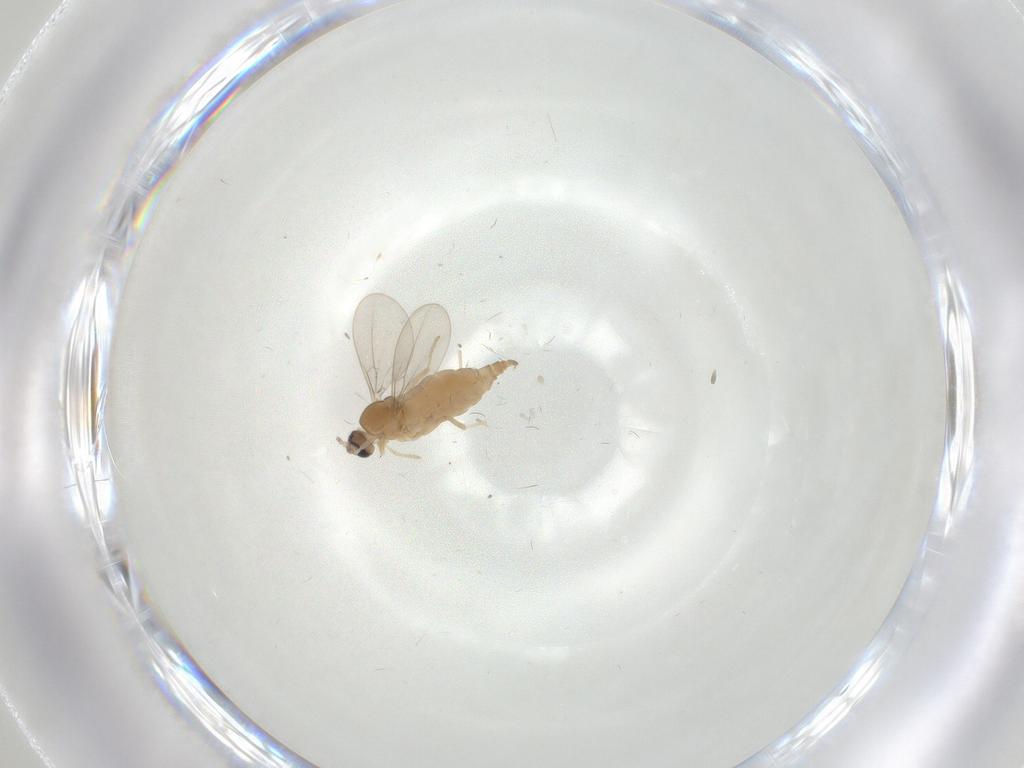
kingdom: Animalia
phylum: Arthropoda
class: Insecta
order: Diptera
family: Cecidomyiidae
